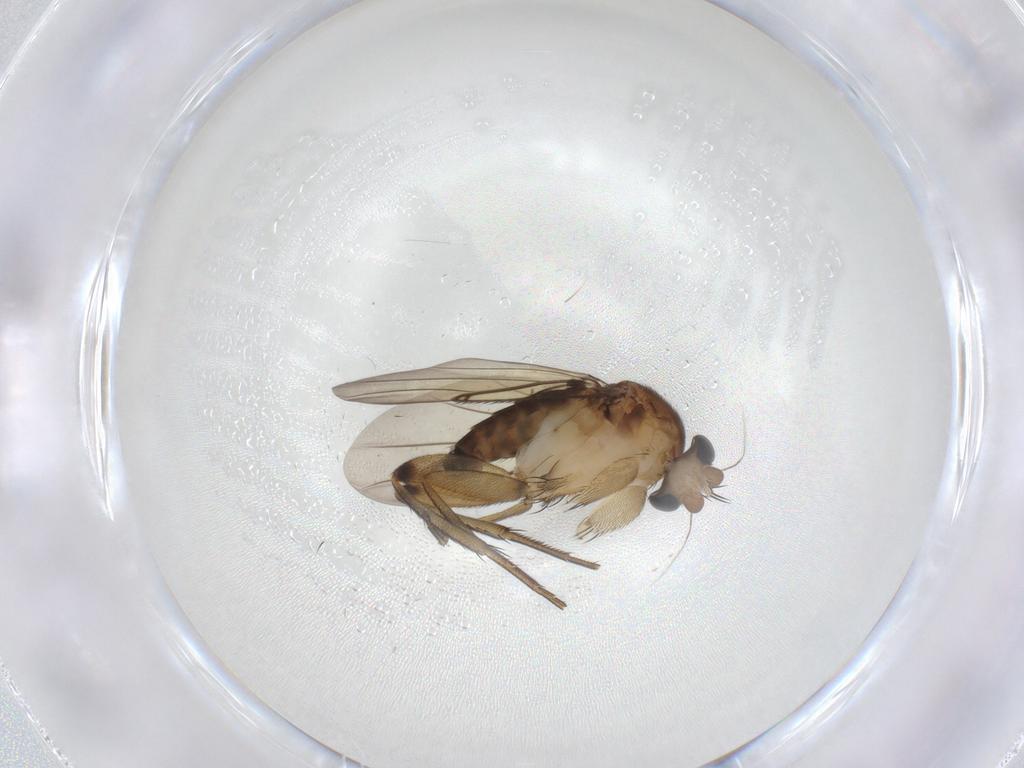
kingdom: Animalia
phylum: Arthropoda
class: Insecta
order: Diptera
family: Phoridae
